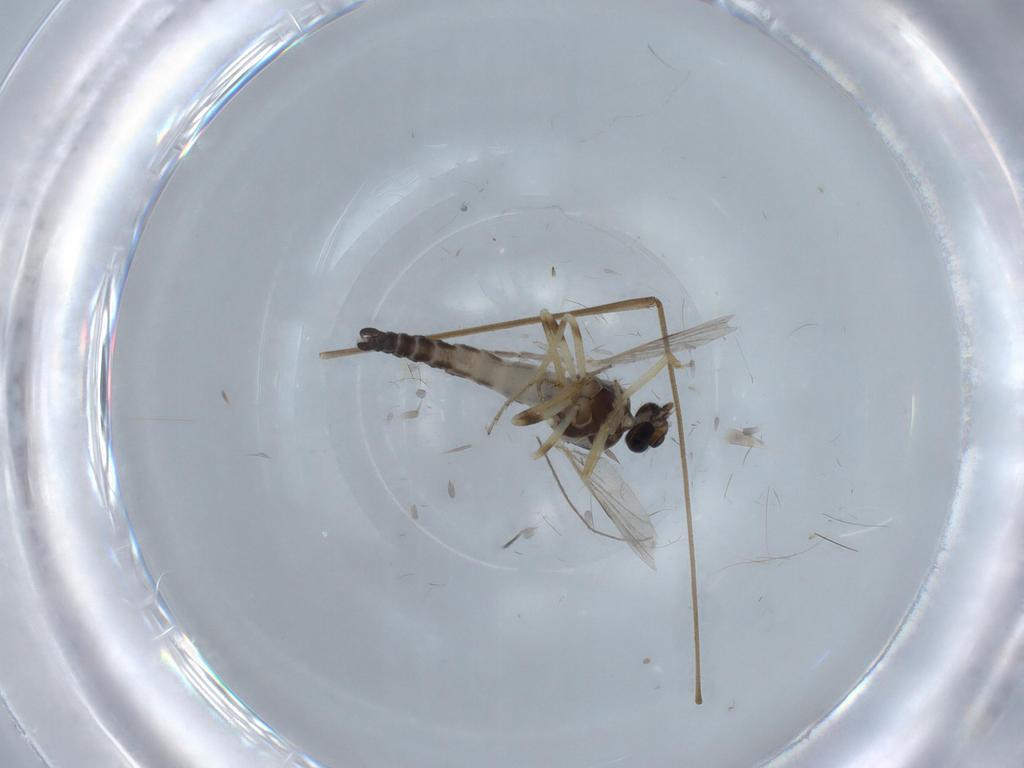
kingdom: Animalia
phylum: Arthropoda
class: Insecta
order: Diptera
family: Ceratopogonidae
